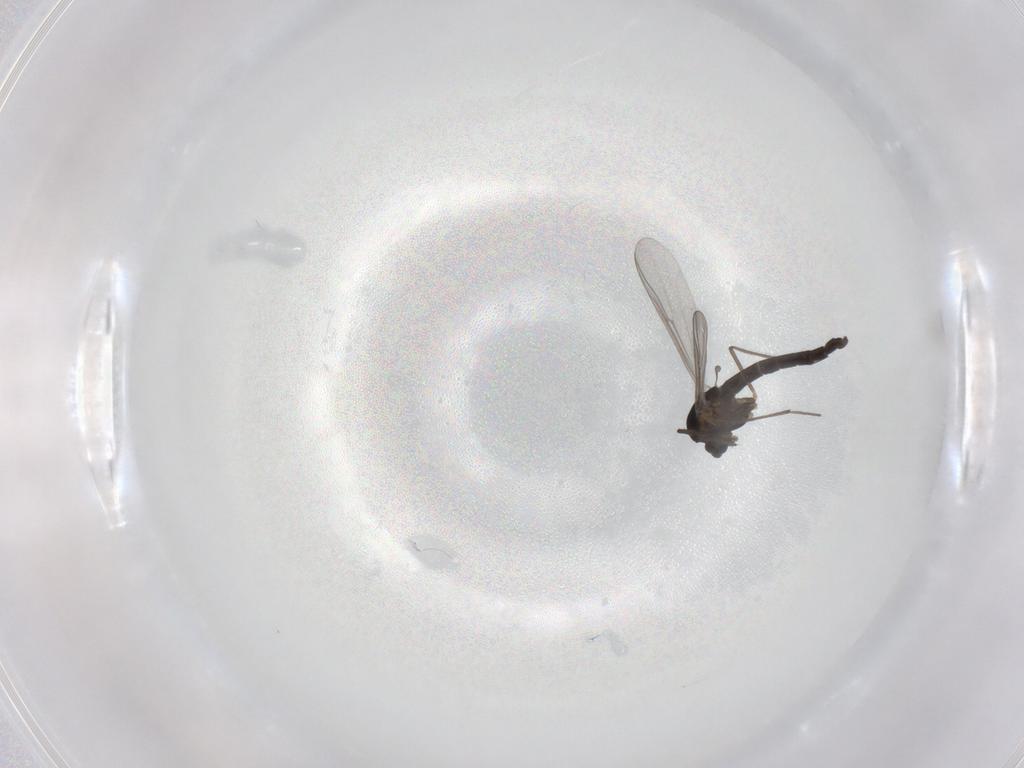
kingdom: Animalia
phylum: Arthropoda
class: Insecta
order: Diptera
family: Chironomidae
